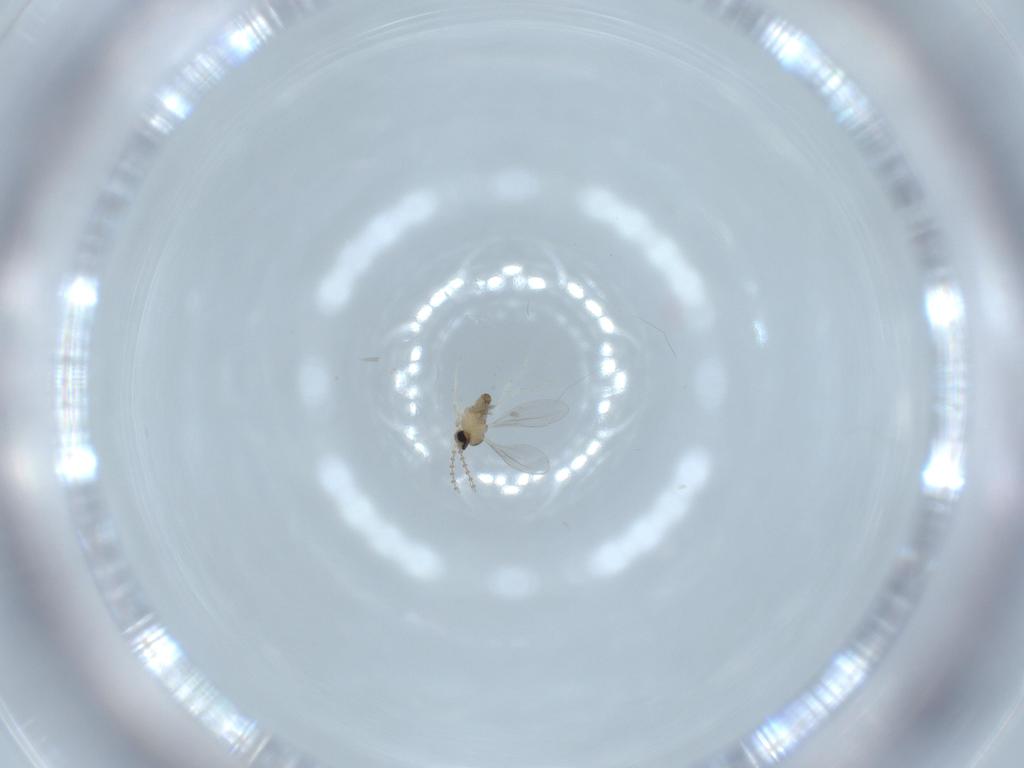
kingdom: Animalia
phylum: Arthropoda
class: Insecta
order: Diptera
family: Cecidomyiidae
